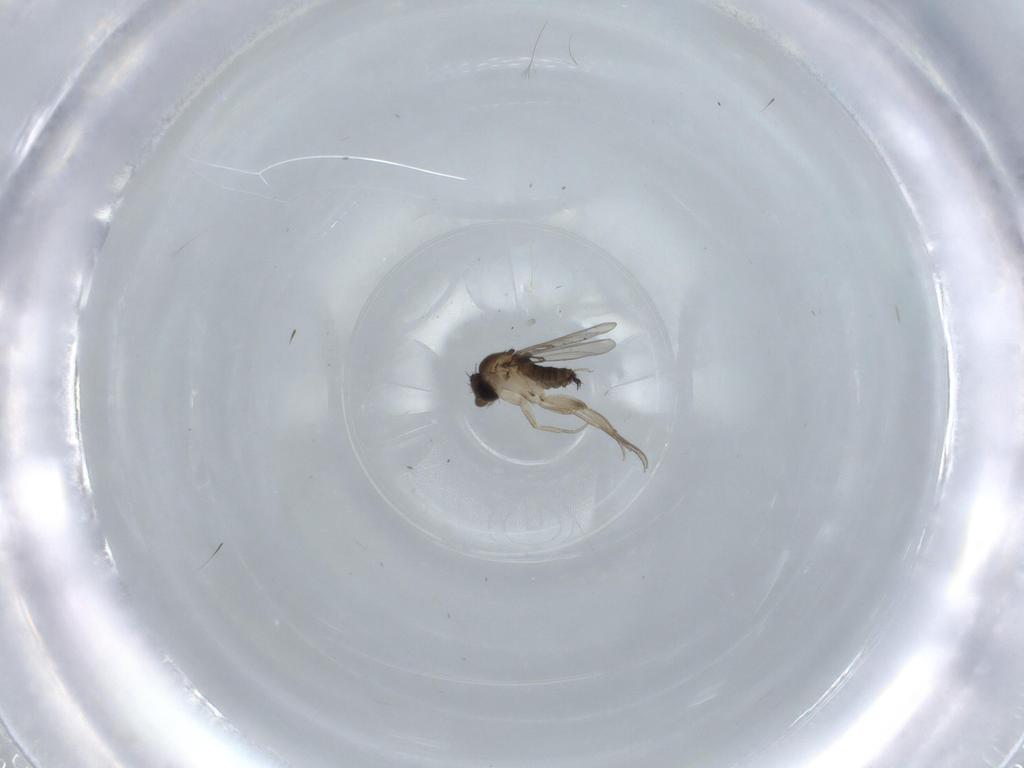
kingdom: Animalia
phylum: Arthropoda
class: Insecta
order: Diptera
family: Phoridae
